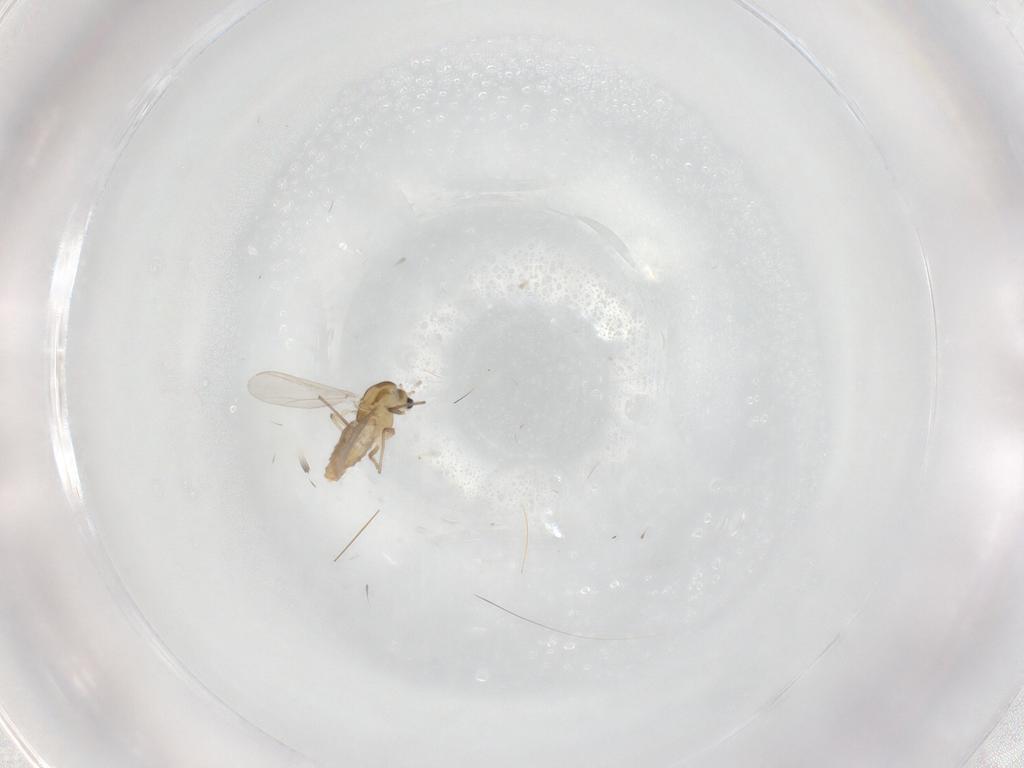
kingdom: Animalia
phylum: Arthropoda
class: Insecta
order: Diptera
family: Chironomidae
